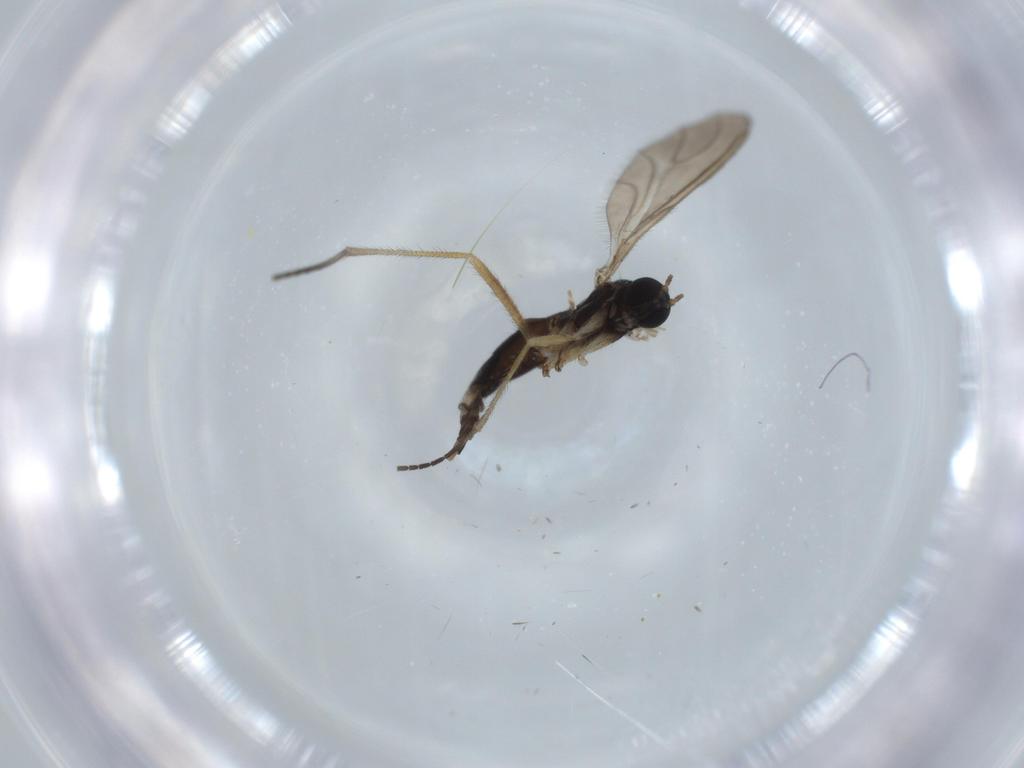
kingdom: Animalia
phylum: Arthropoda
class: Insecta
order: Diptera
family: Sciaridae
